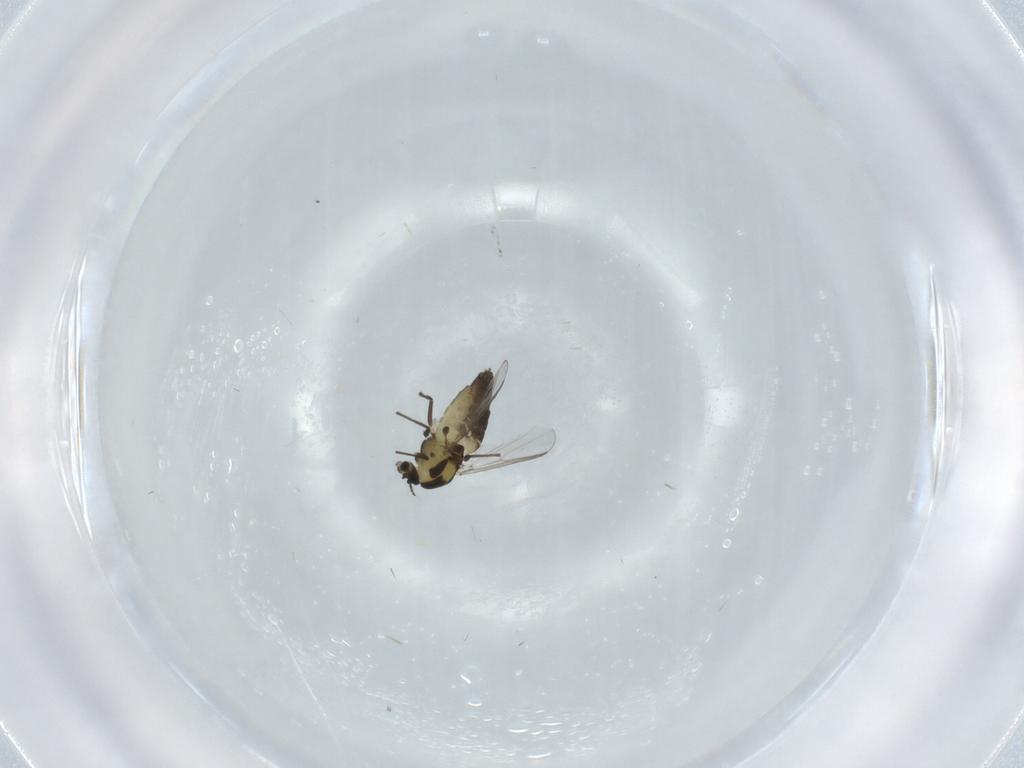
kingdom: Animalia
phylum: Arthropoda
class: Insecta
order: Diptera
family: Chironomidae
